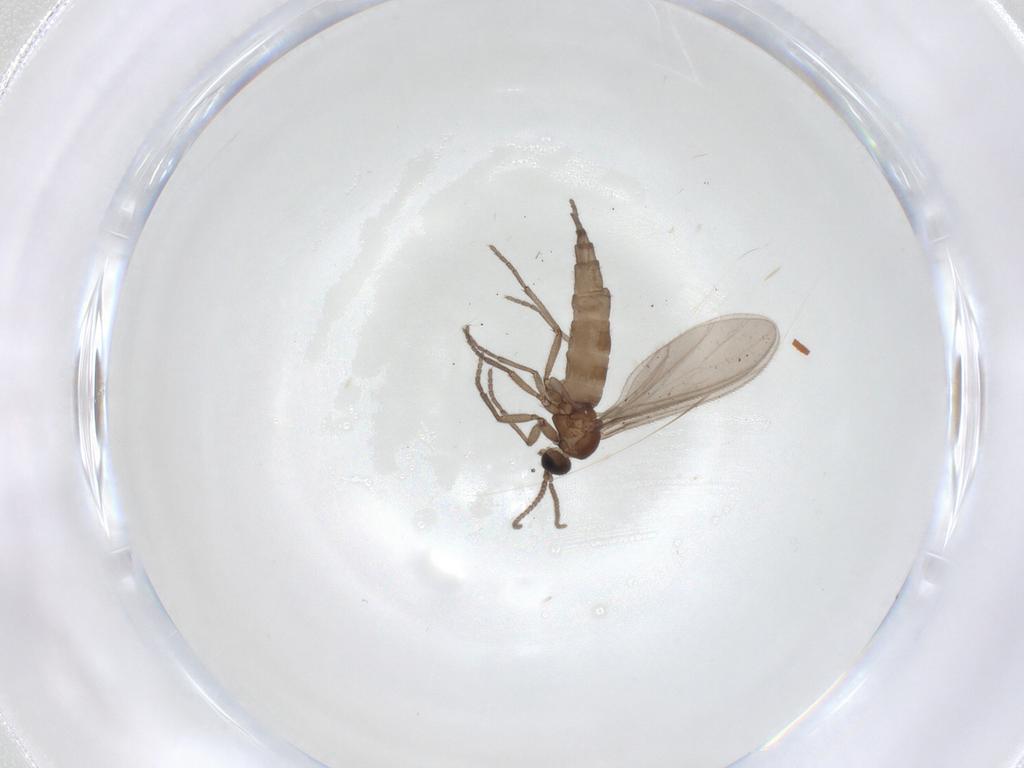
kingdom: Animalia
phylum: Arthropoda
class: Insecta
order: Diptera
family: Sciaridae
